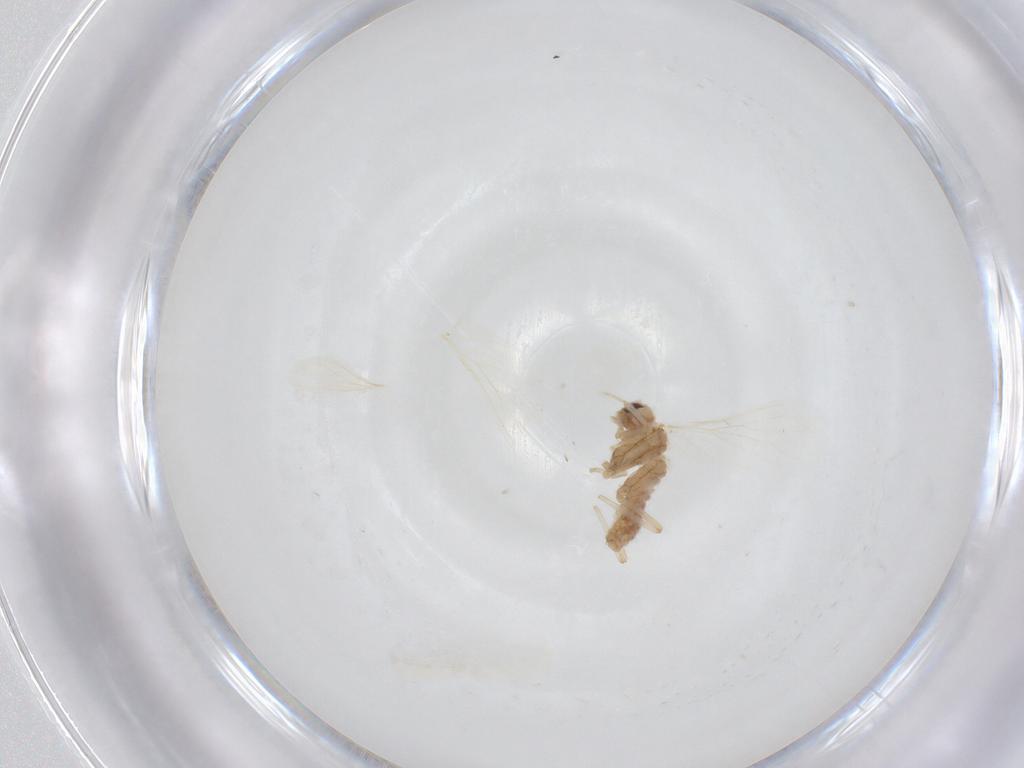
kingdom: Animalia
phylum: Arthropoda
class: Insecta
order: Neuroptera
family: Coniopterygidae
